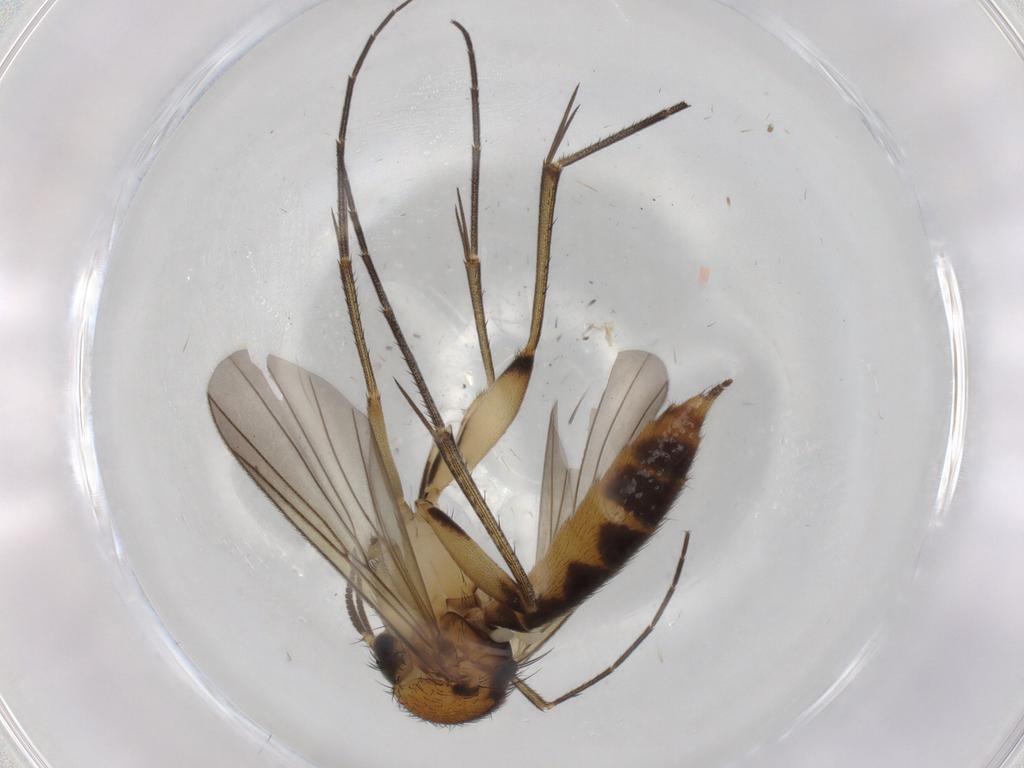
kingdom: Animalia
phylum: Arthropoda
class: Insecta
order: Diptera
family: Mycetophilidae
